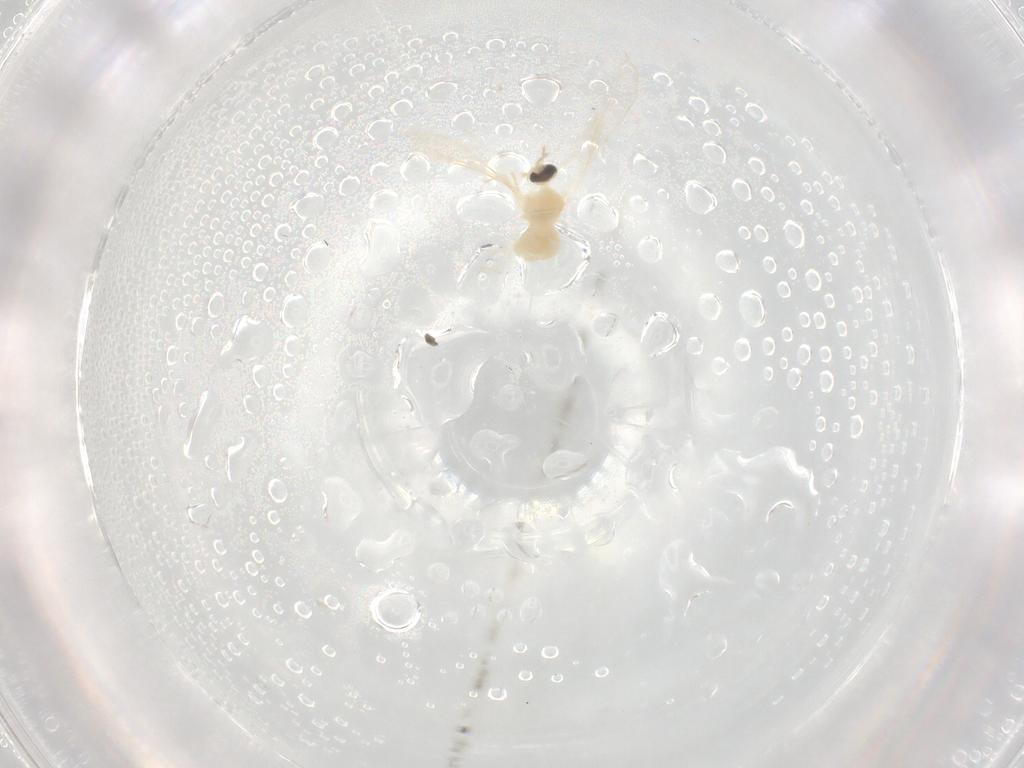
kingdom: Animalia
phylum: Arthropoda
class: Insecta
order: Diptera
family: Cecidomyiidae
